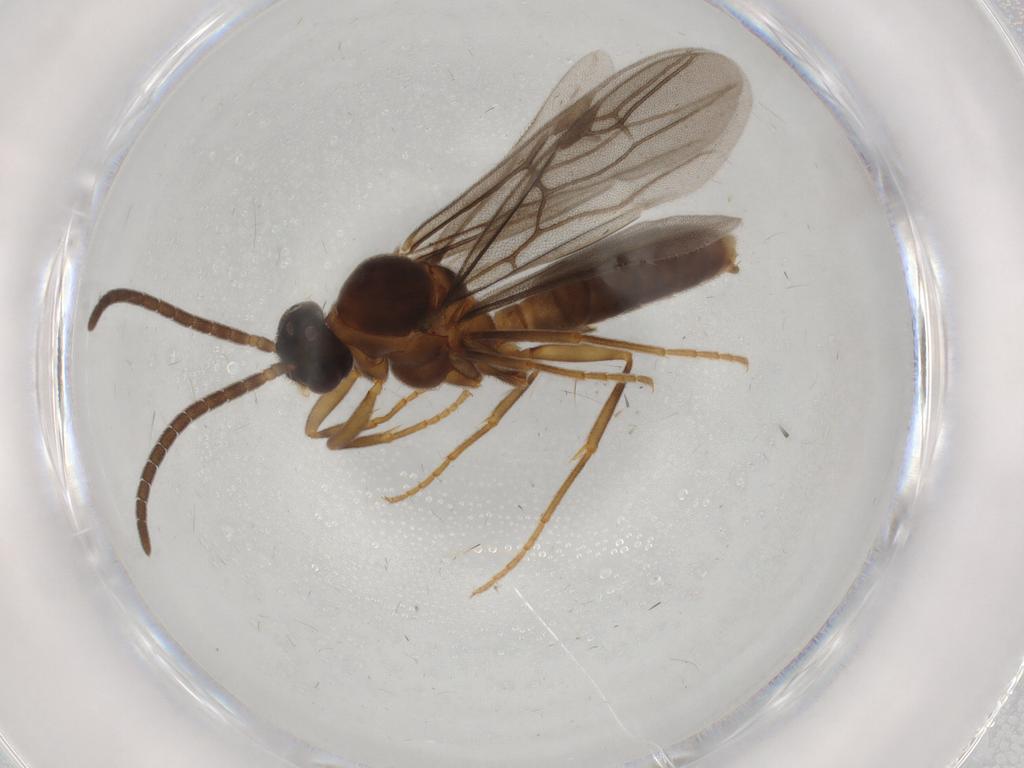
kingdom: Animalia
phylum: Arthropoda
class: Insecta
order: Hymenoptera
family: Formicidae
